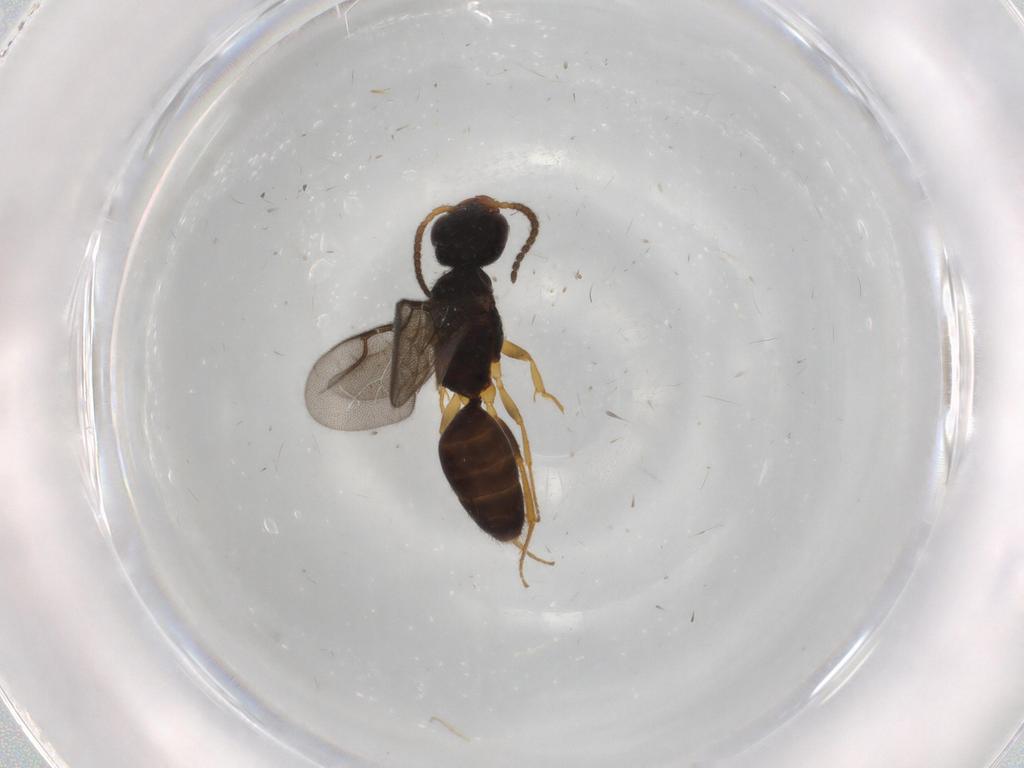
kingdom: Animalia
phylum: Arthropoda
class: Insecta
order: Hymenoptera
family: Bethylidae
